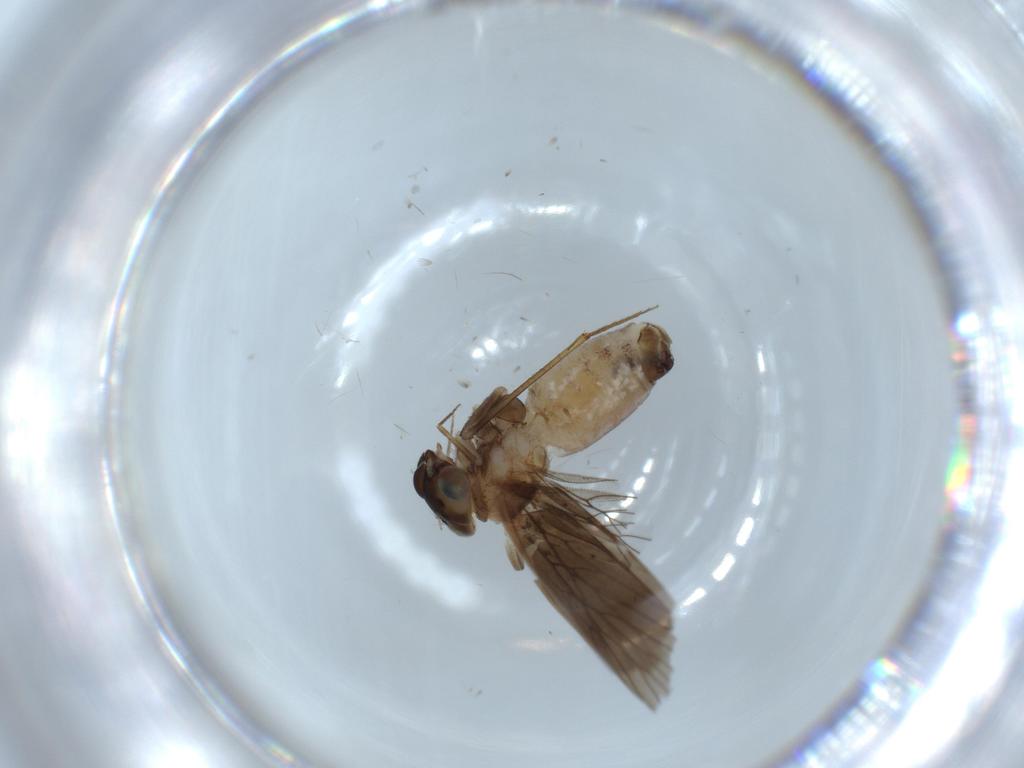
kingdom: Animalia
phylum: Arthropoda
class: Insecta
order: Psocodea
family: Lepidopsocidae
